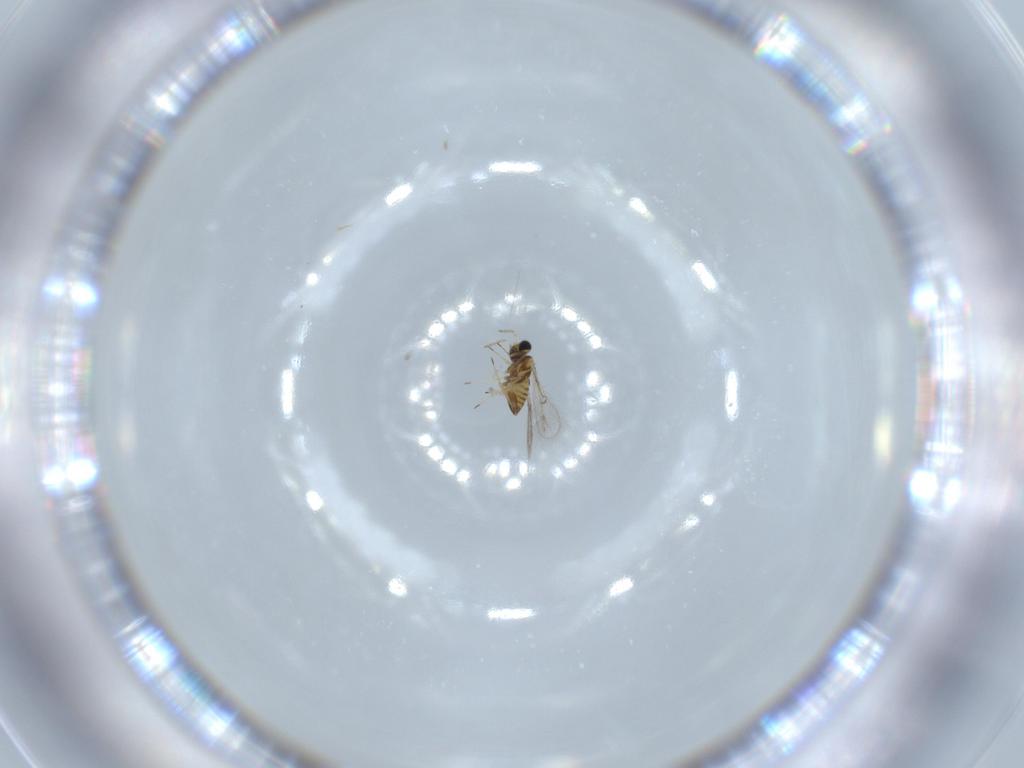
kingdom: Animalia
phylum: Arthropoda
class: Insecta
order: Hymenoptera
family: Trichogrammatidae
